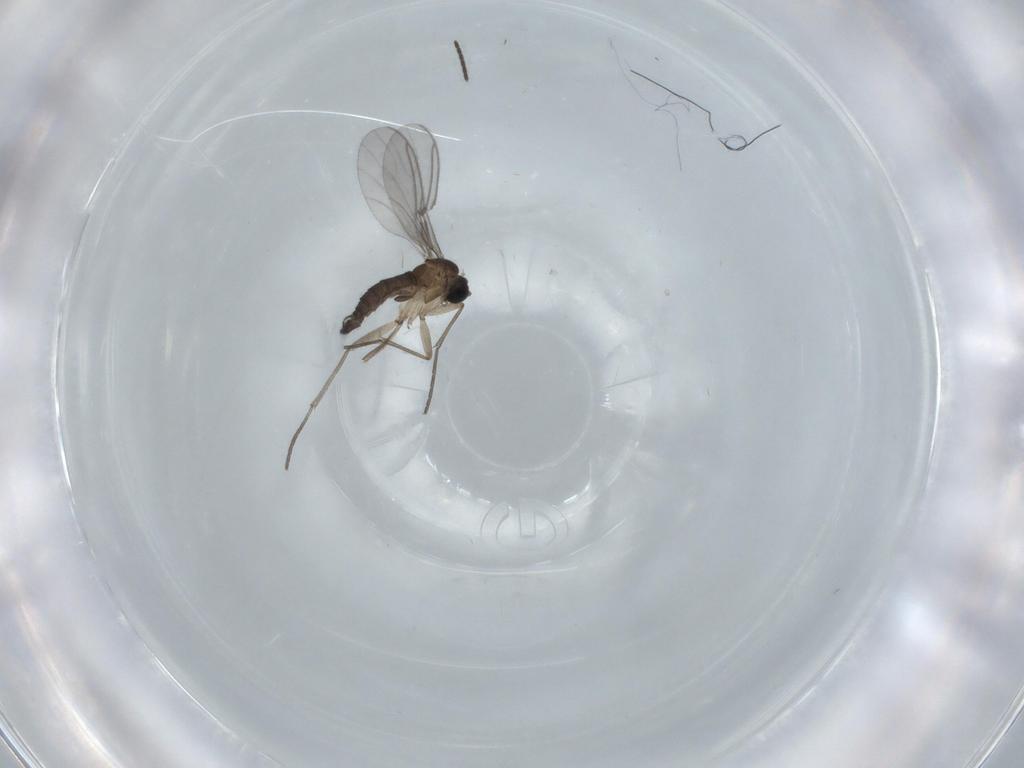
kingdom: Animalia
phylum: Arthropoda
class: Insecta
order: Diptera
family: Sciaridae
